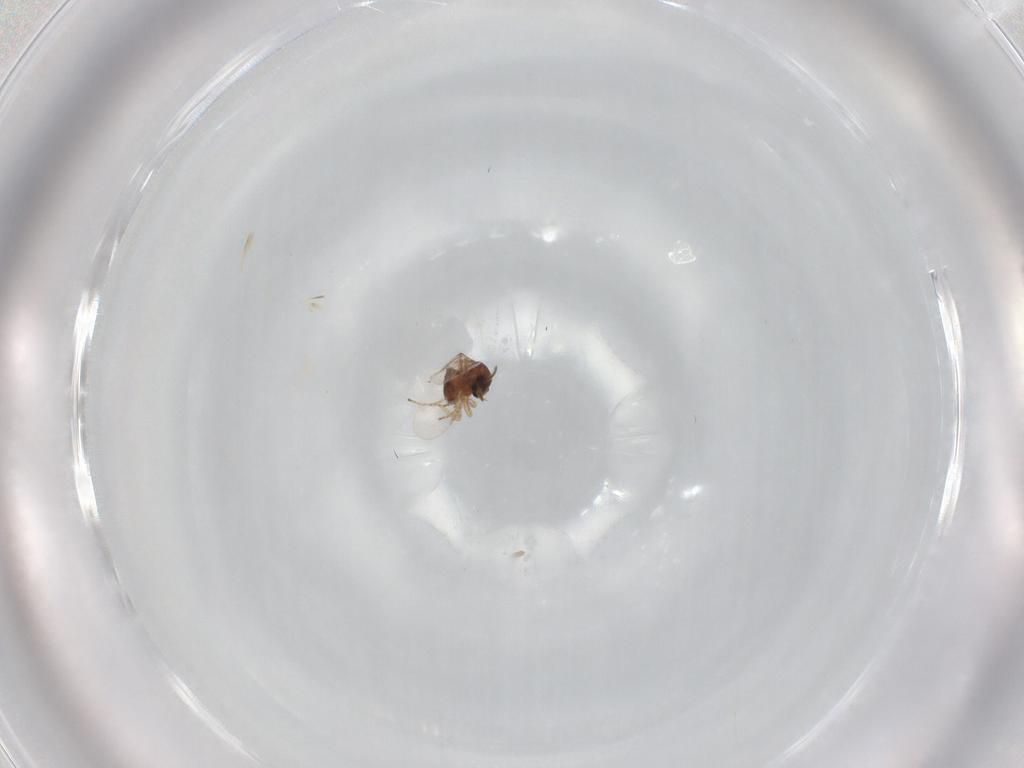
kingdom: Animalia
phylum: Arthropoda
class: Insecta
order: Diptera
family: Ceratopogonidae
